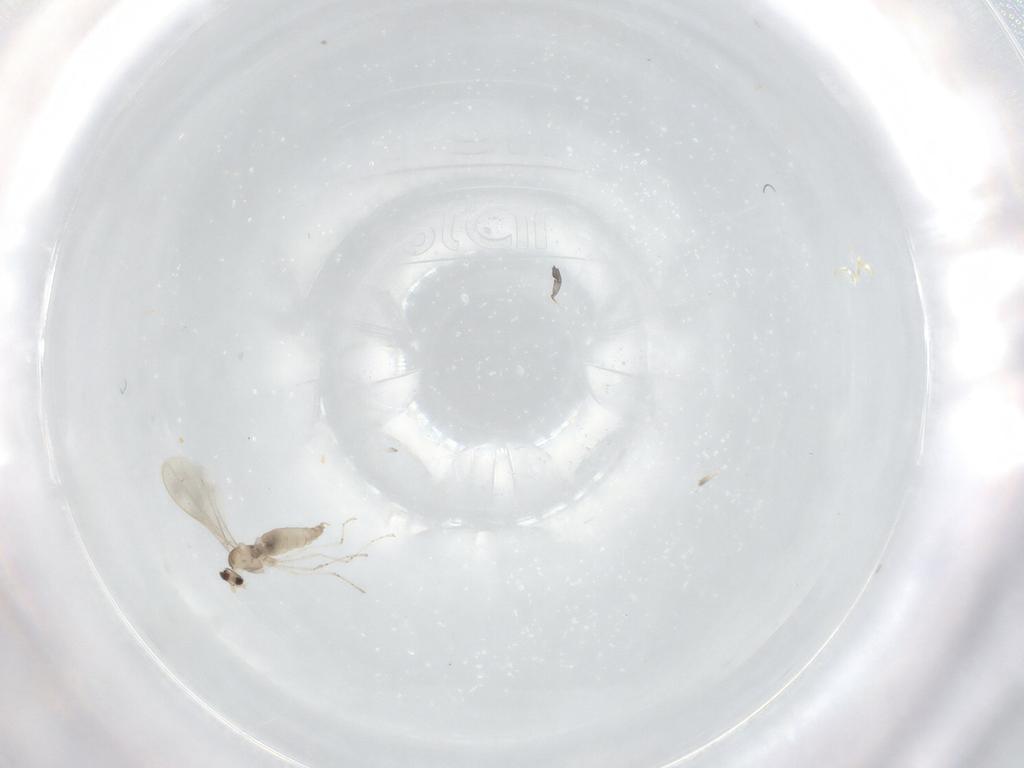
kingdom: Animalia
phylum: Arthropoda
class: Insecta
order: Diptera
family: Cecidomyiidae
